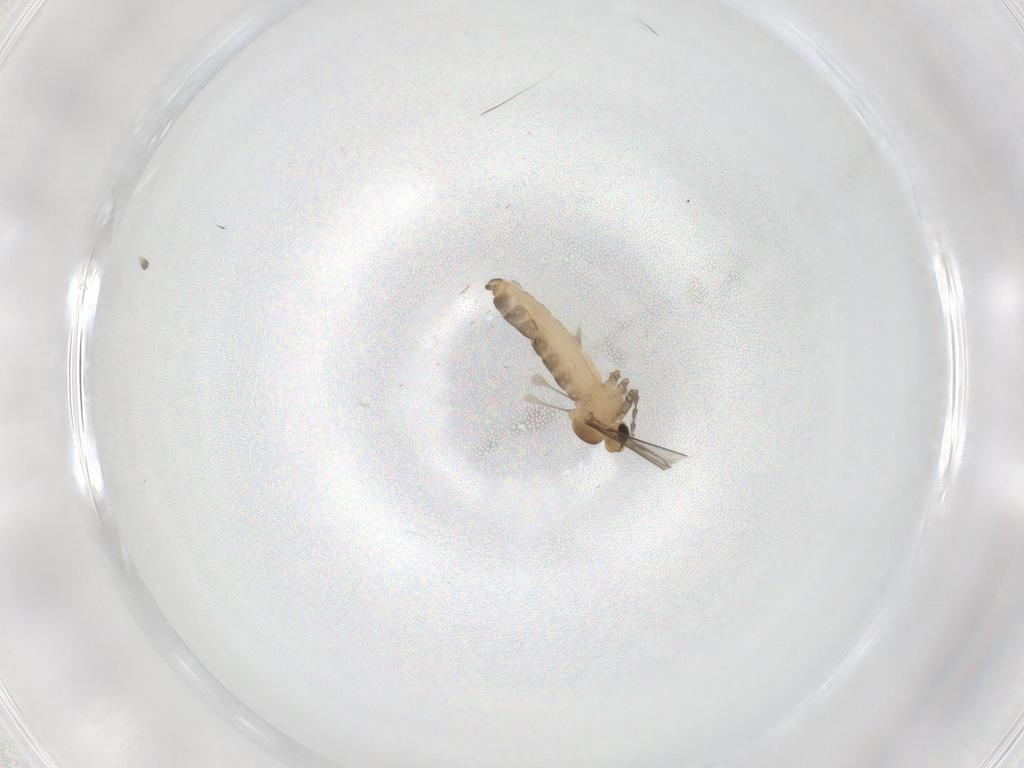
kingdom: Animalia
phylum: Arthropoda
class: Insecta
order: Diptera
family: Cecidomyiidae
